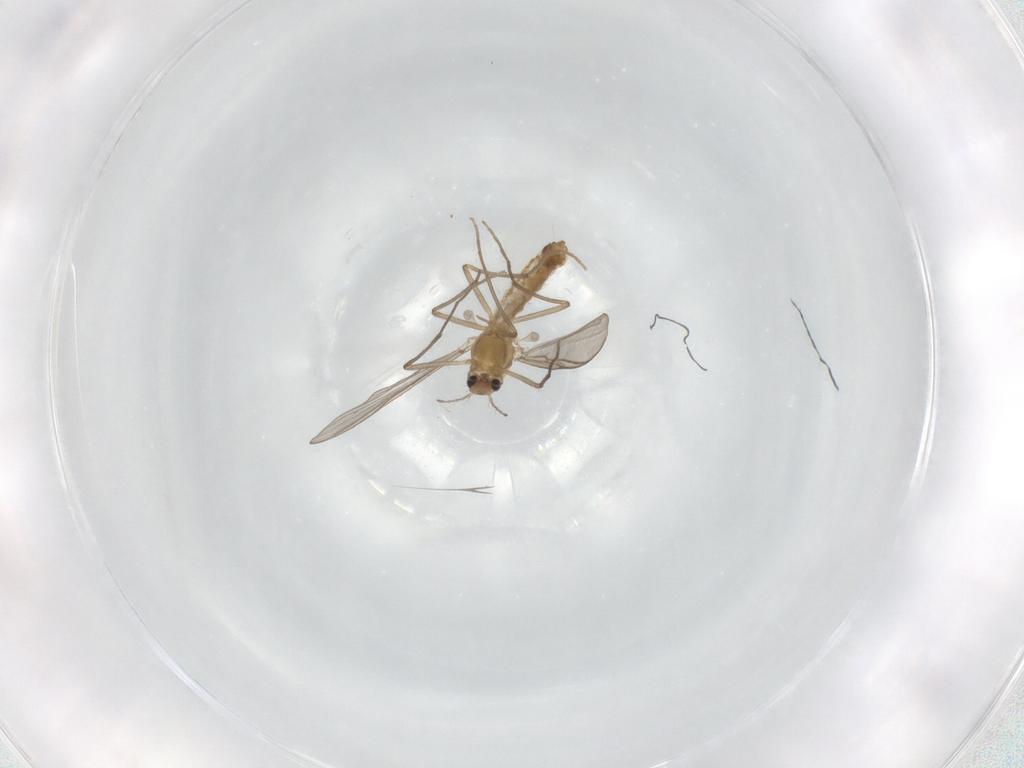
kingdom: Animalia
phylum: Arthropoda
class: Insecta
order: Diptera
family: Chironomidae
